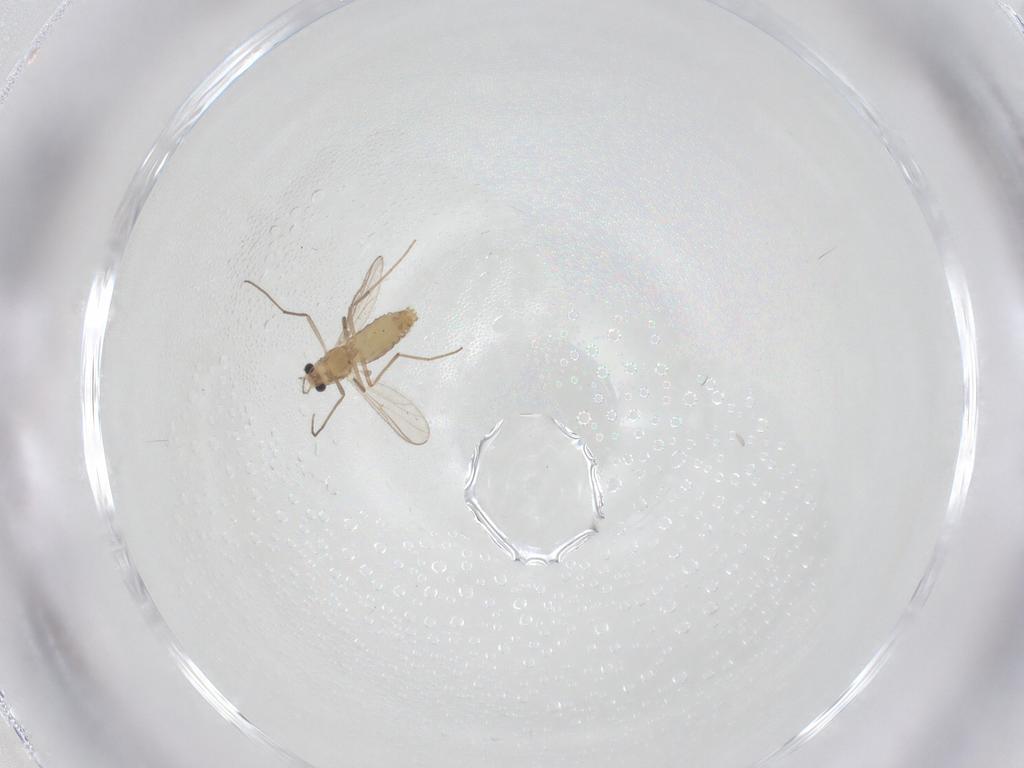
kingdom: Animalia
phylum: Arthropoda
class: Insecta
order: Diptera
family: Chironomidae
